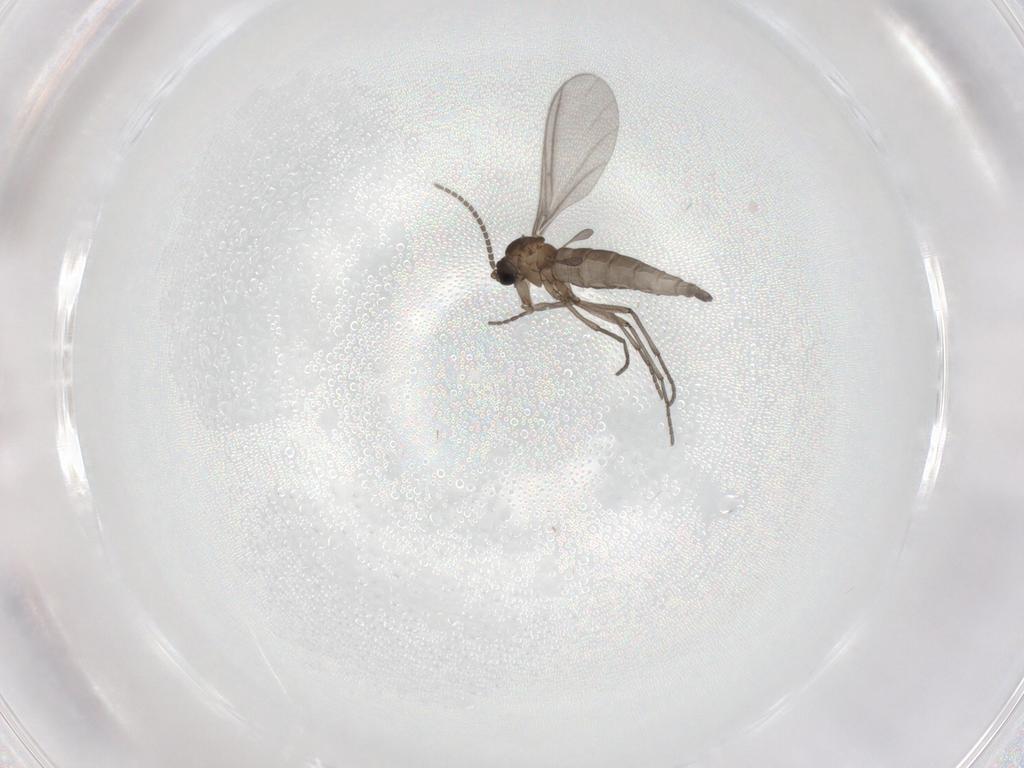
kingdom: Animalia
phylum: Arthropoda
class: Insecta
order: Diptera
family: Sciaridae
